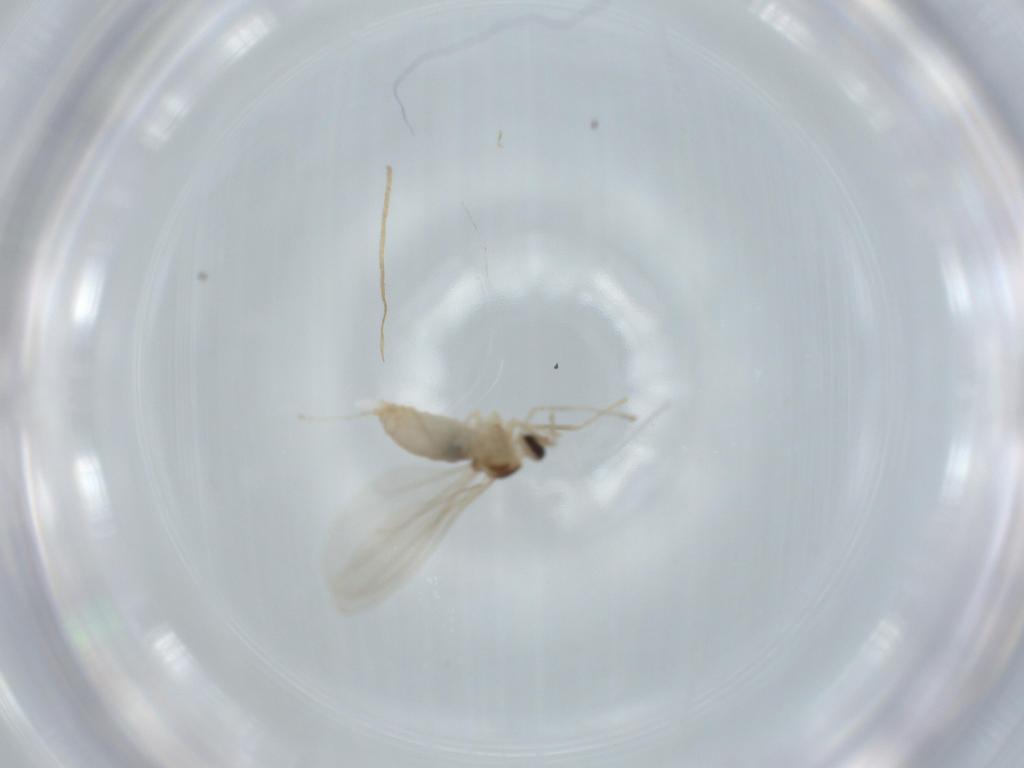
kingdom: Animalia
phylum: Arthropoda
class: Insecta
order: Diptera
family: Cecidomyiidae
